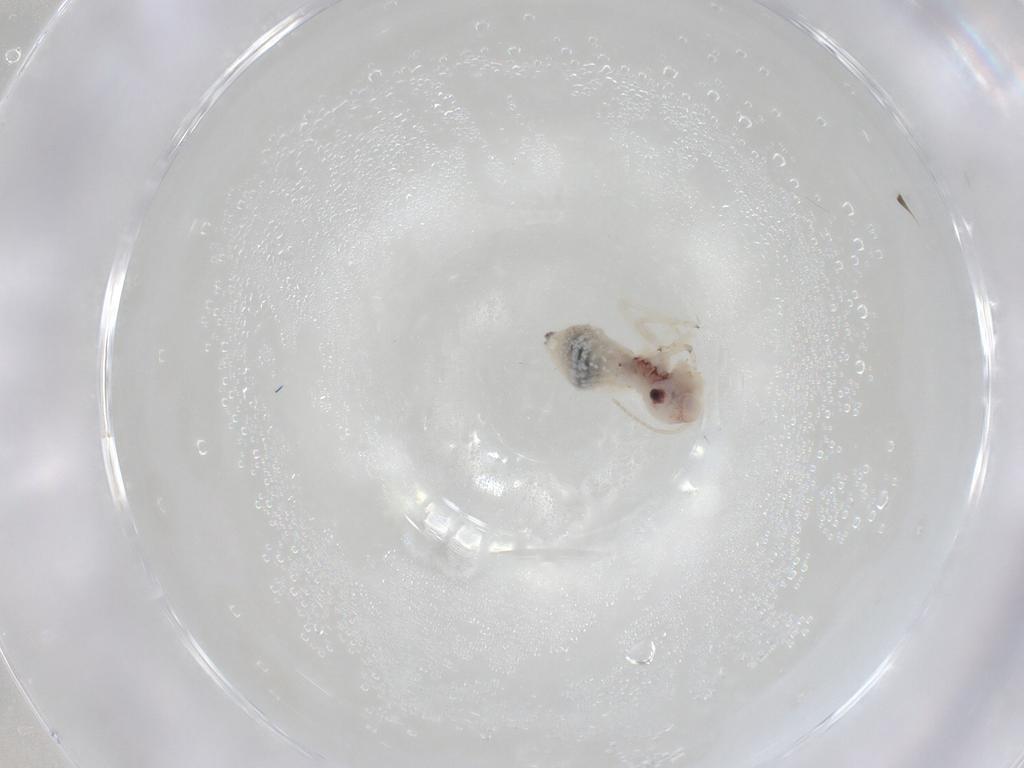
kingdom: Animalia
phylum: Arthropoda
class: Insecta
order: Psocodea
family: Amphipsocidae
